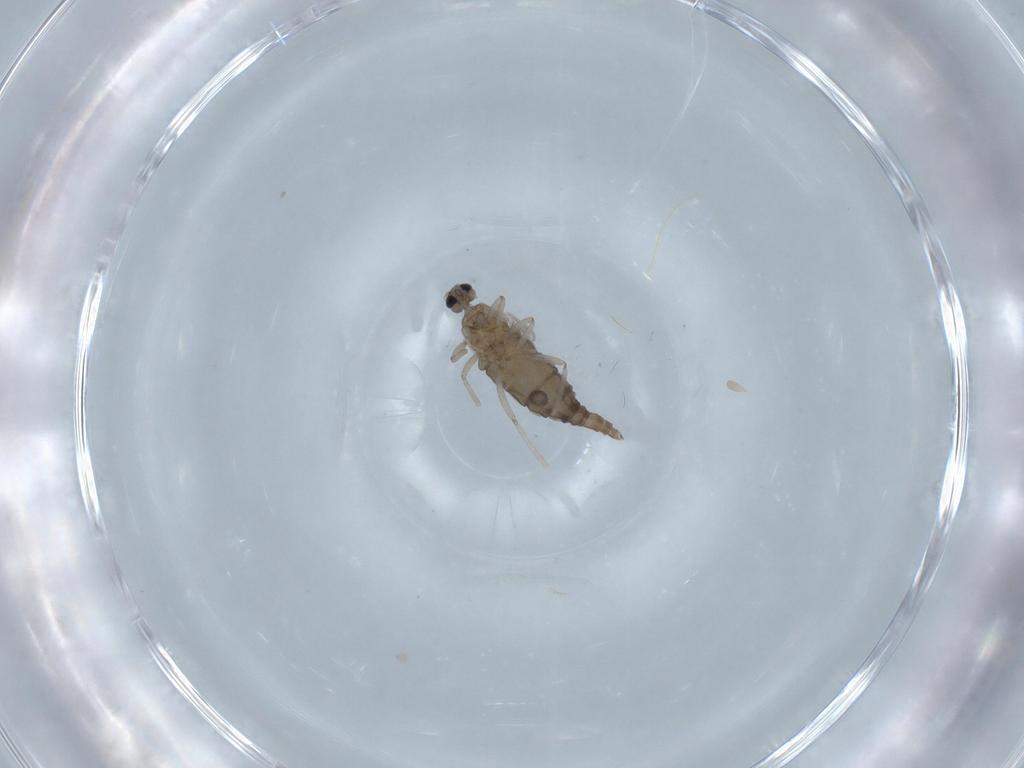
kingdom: Animalia
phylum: Arthropoda
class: Insecta
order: Diptera
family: Cecidomyiidae
